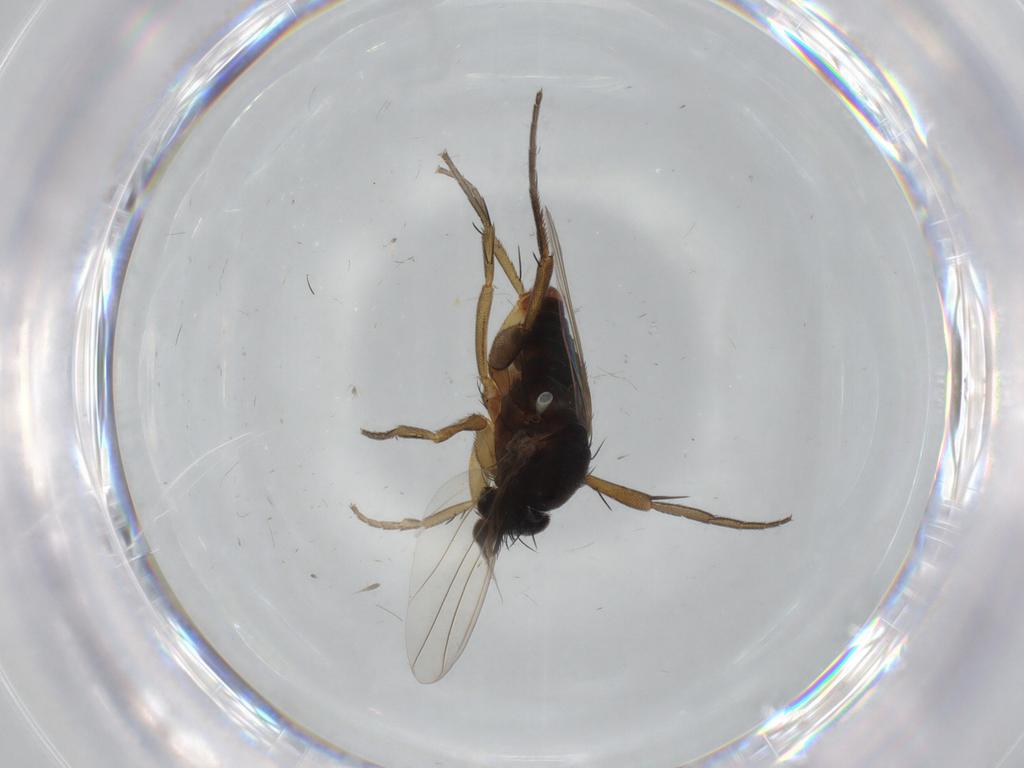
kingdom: Animalia
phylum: Arthropoda
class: Insecta
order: Diptera
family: Phoridae
